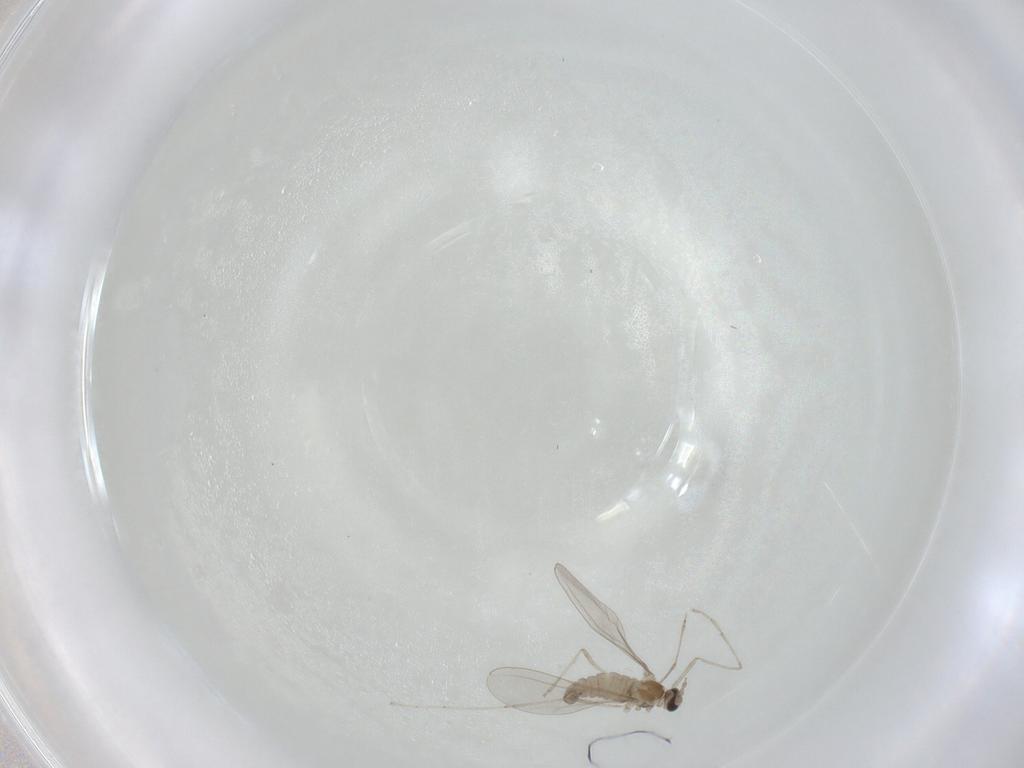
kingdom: Animalia
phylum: Arthropoda
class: Insecta
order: Diptera
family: Cecidomyiidae
